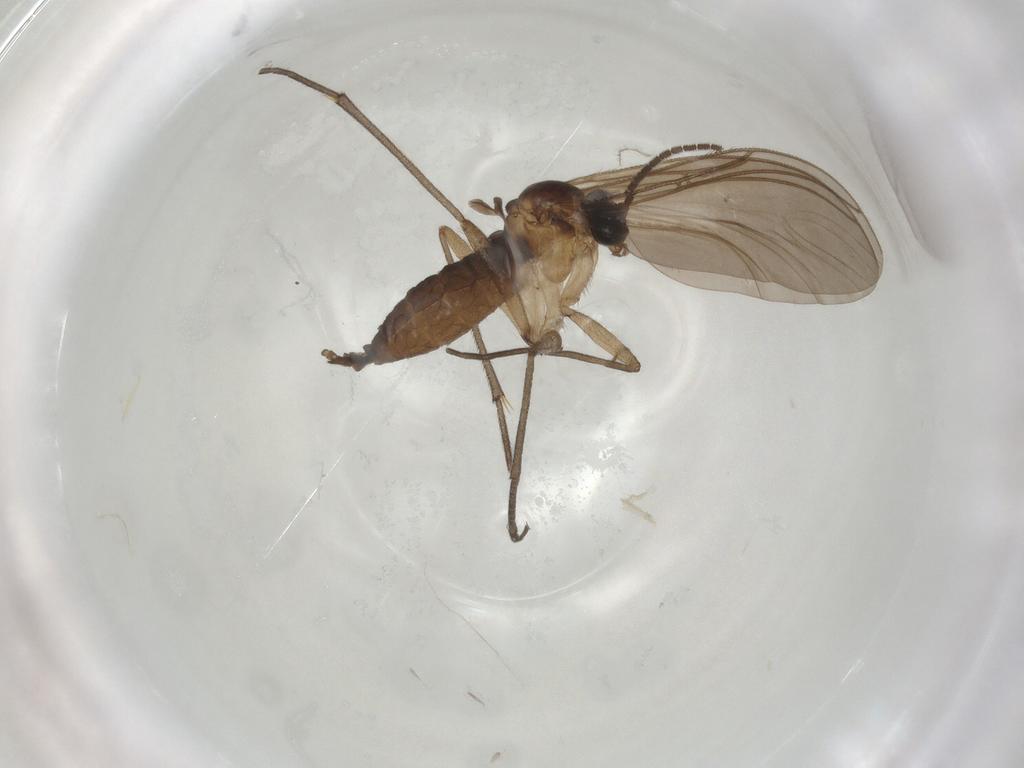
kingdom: Animalia
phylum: Arthropoda
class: Insecta
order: Diptera
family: Sciaridae
